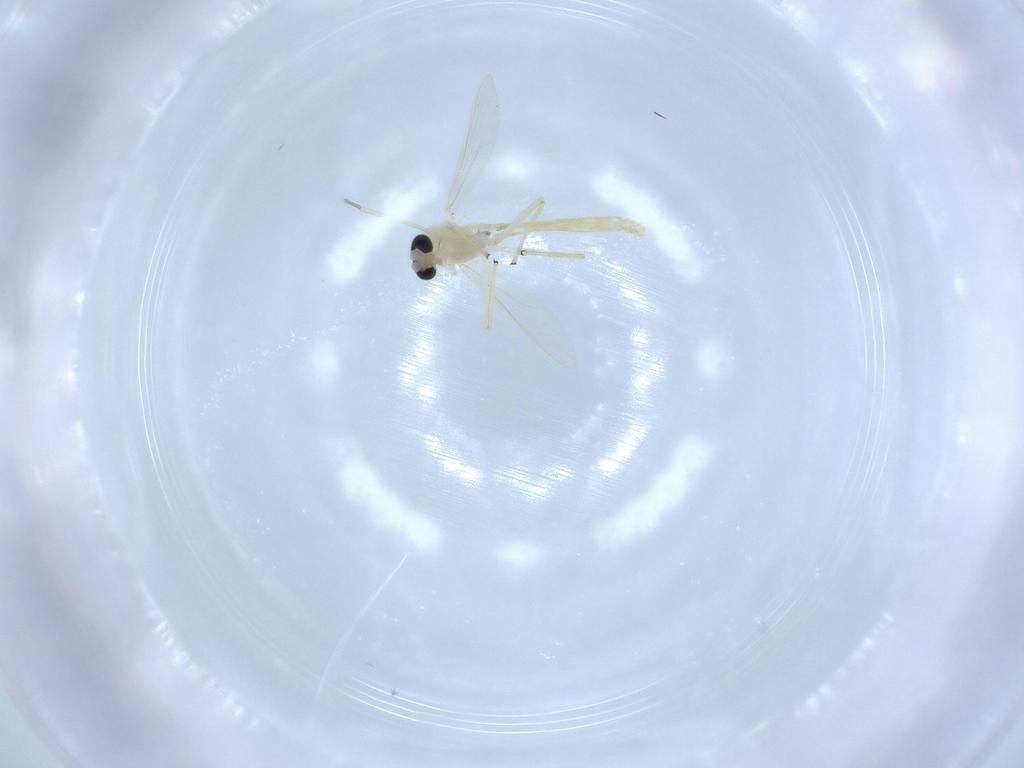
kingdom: Animalia
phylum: Arthropoda
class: Insecta
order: Diptera
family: Chironomidae
